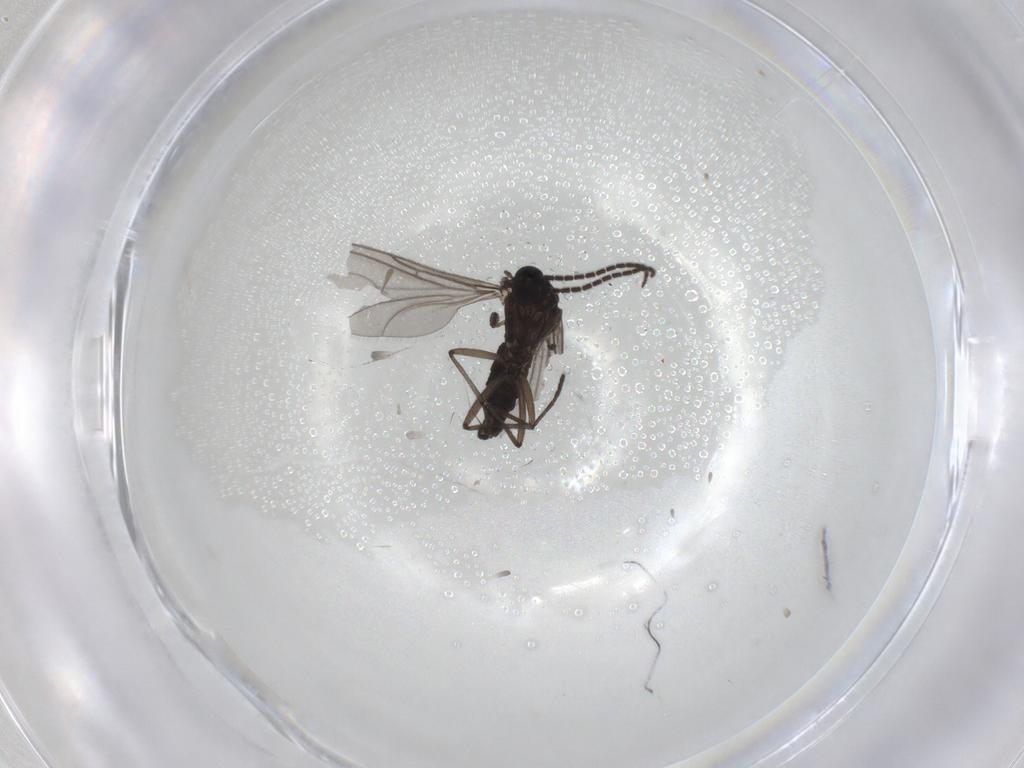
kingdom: Animalia
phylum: Arthropoda
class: Insecta
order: Diptera
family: Sciaridae
